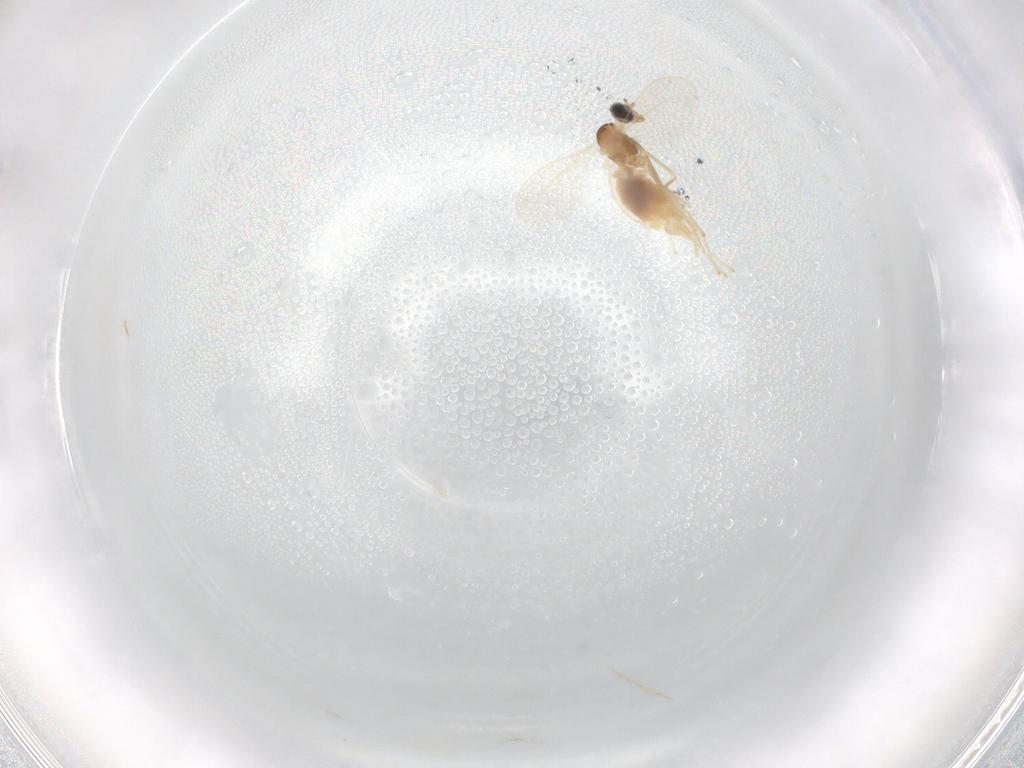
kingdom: Animalia
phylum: Arthropoda
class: Insecta
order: Diptera
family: Cecidomyiidae
